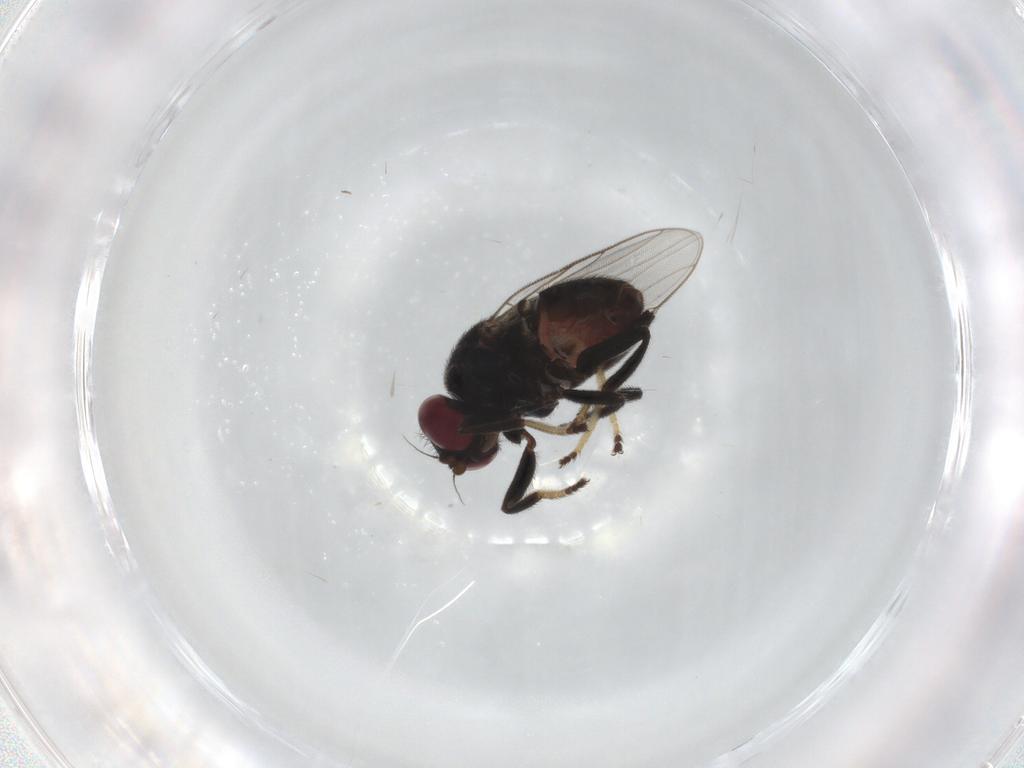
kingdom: Animalia
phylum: Arthropoda
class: Insecta
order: Diptera
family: Chloropidae
